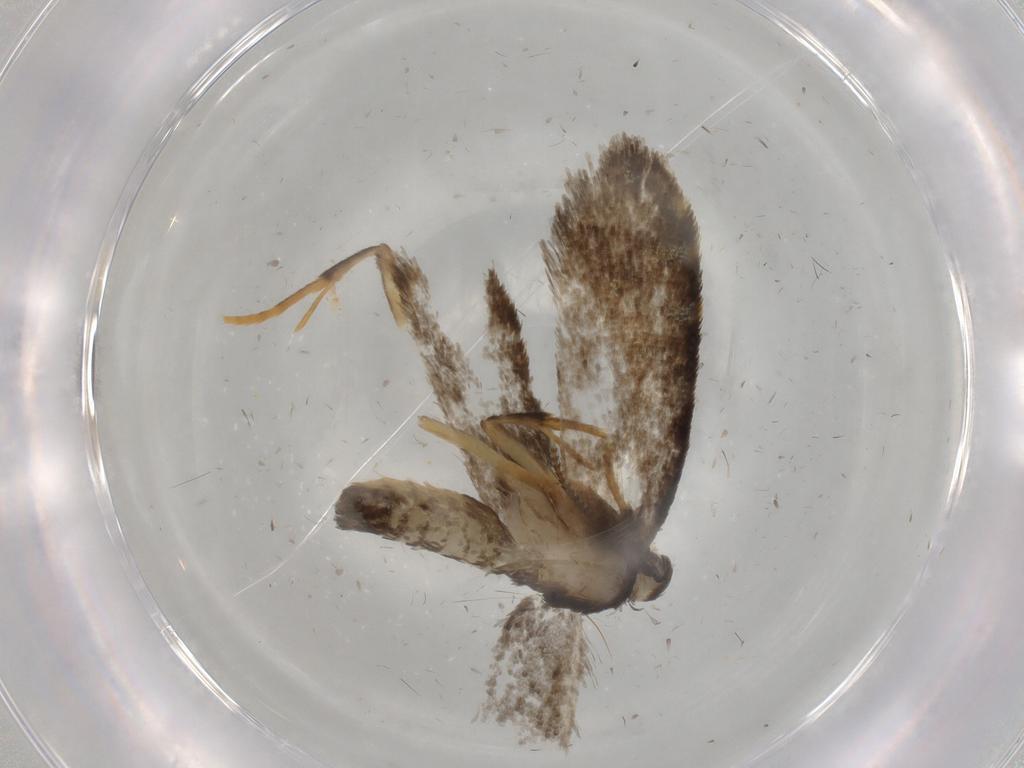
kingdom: Animalia
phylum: Arthropoda
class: Insecta
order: Lepidoptera
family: Psychidae
